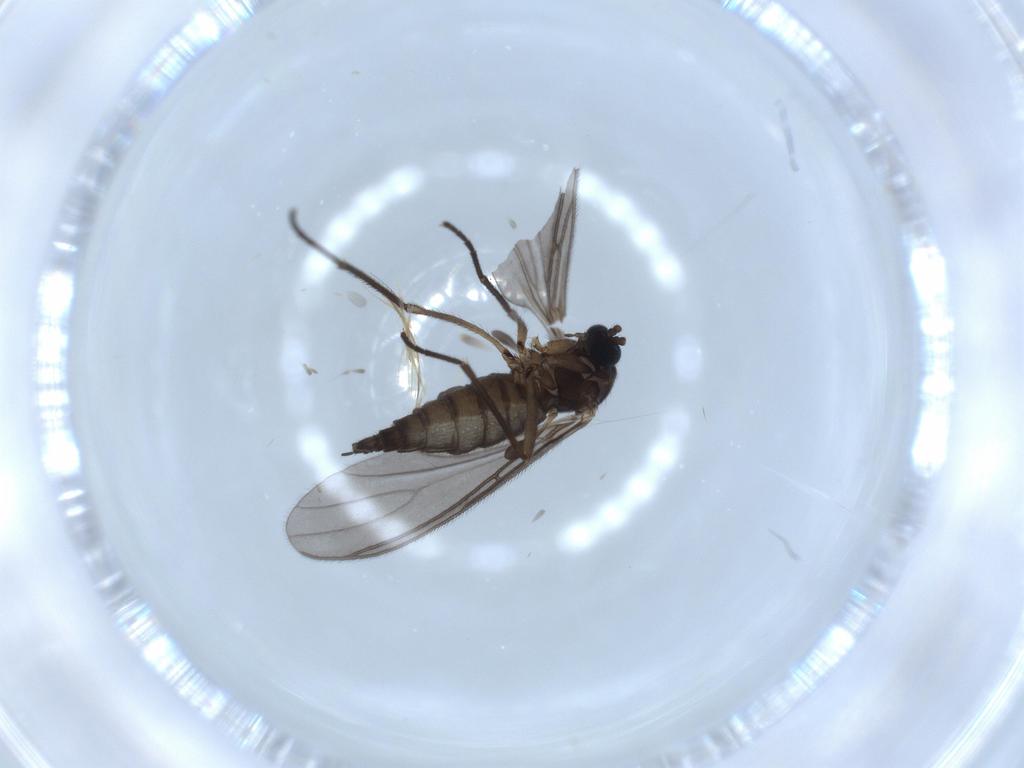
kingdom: Animalia
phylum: Arthropoda
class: Insecta
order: Diptera
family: Sciaridae
